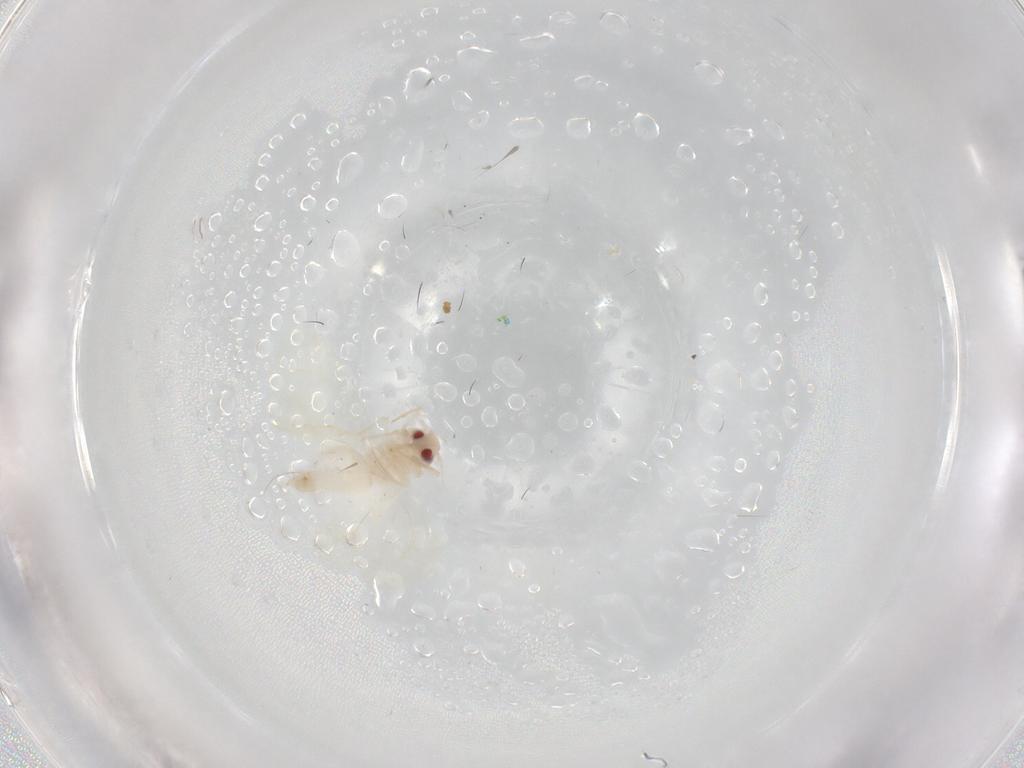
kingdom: Animalia
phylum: Arthropoda
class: Insecta
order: Hemiptera
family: Aleyrodidae
